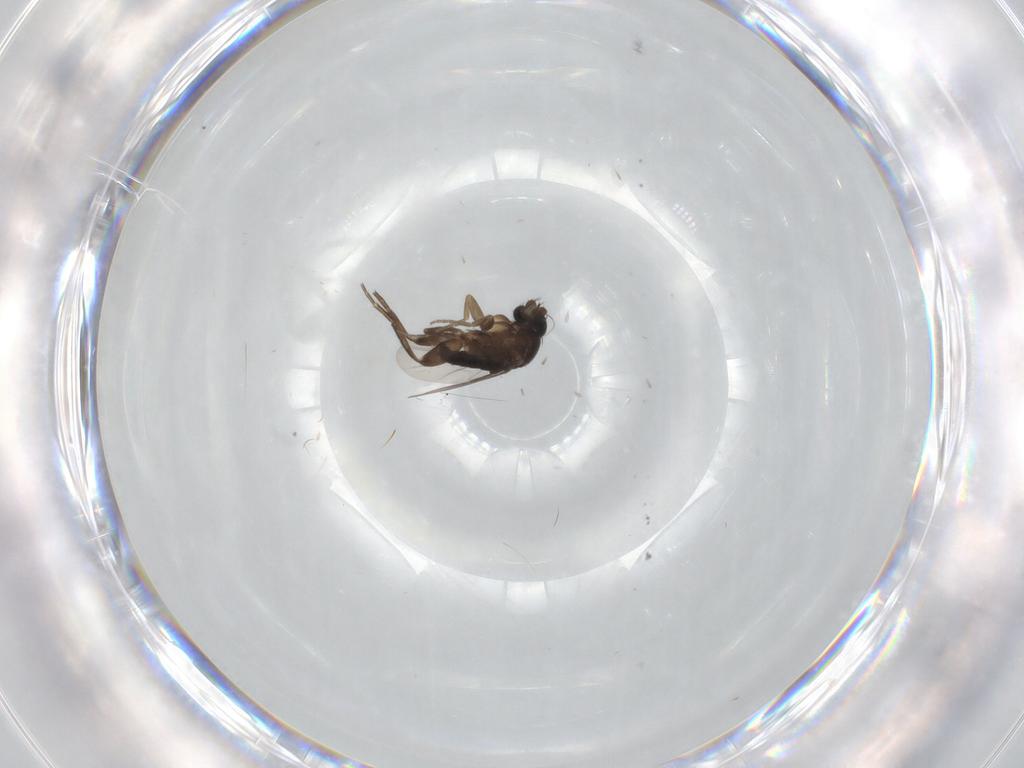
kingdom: Animalia
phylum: Arthropoda
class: Insecta
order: Diptera
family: Phoridae
